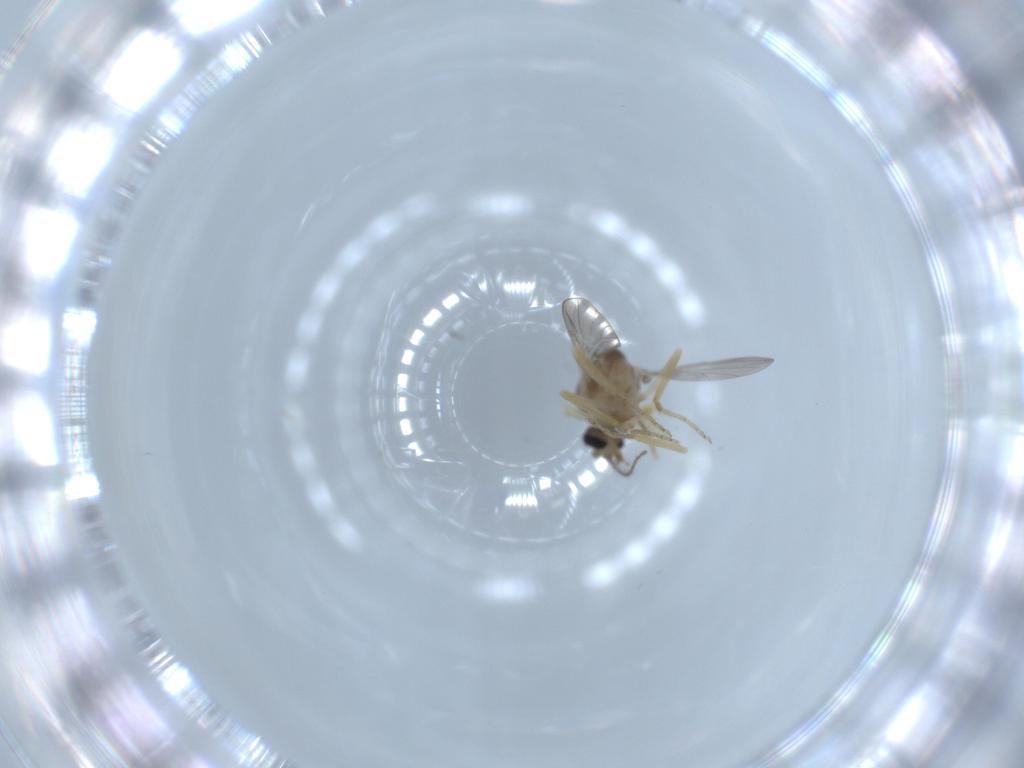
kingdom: Animalia
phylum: Arthropoda
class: Insecta
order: Diptera
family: Ceratopogonidae
